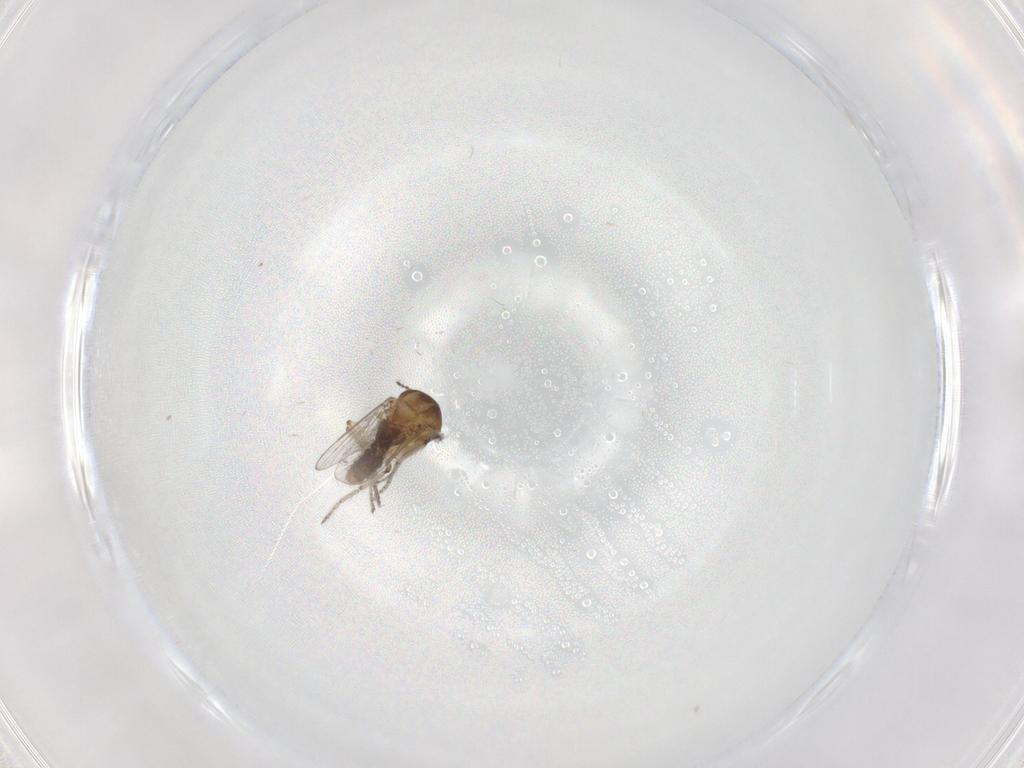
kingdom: Animalia
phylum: Arthropoda
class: Insecta
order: Diptera
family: Ceratopogonidae
